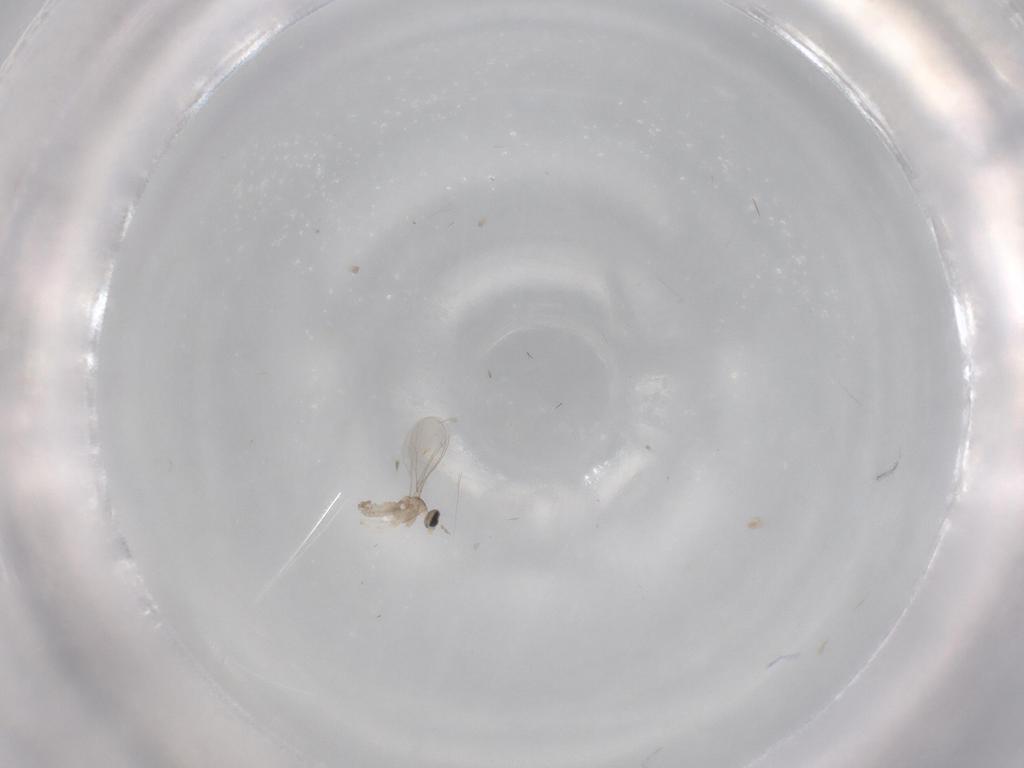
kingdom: Animalia
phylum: Arthropoda
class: Insecta
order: Diptera
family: Cecidomyiidae
